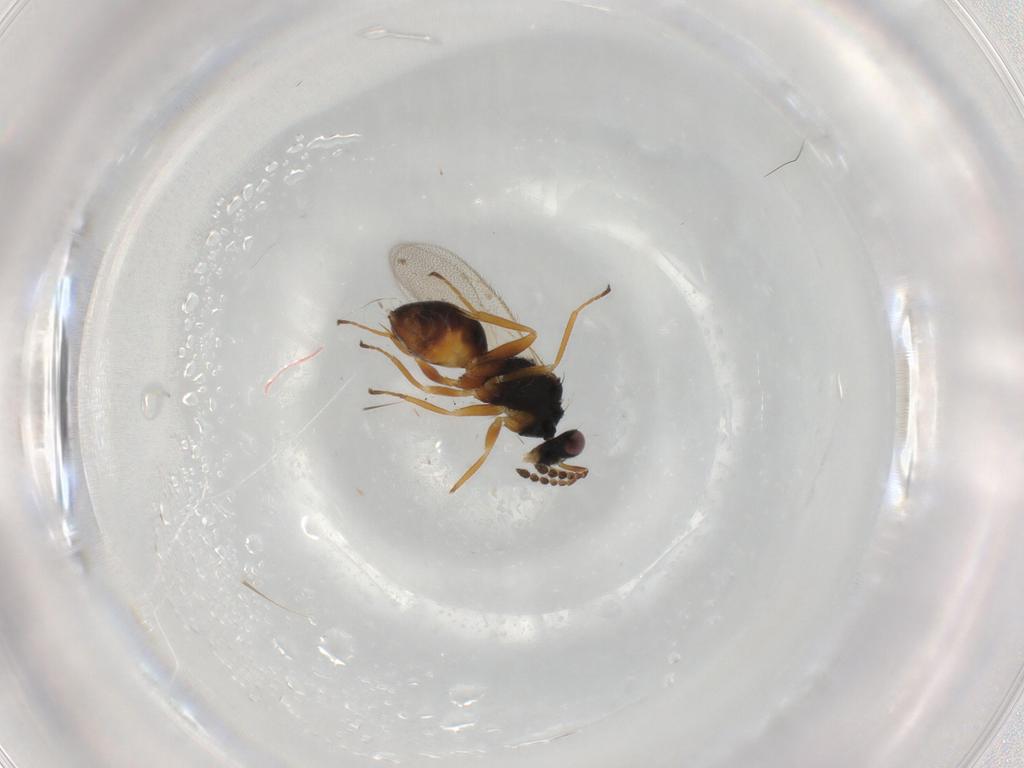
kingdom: Animalia
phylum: Arthropoda
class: Insecta
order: Hymenoptera
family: Eulophidae
